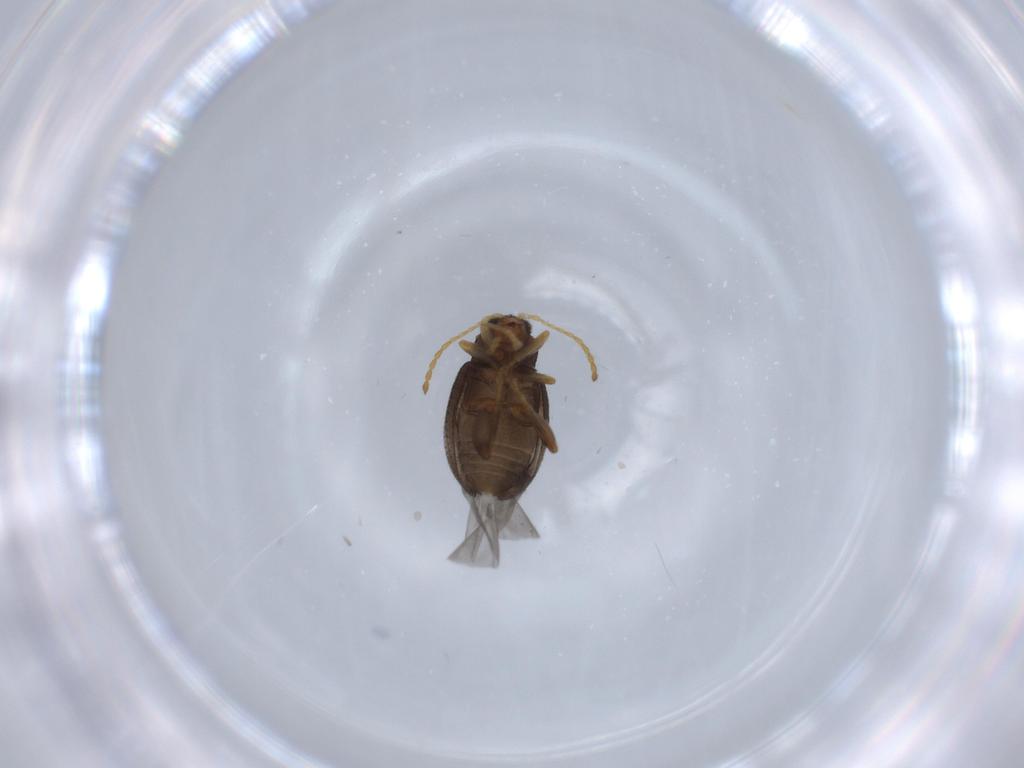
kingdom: Animalia
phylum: Arthropoda
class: Insecta
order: Coleoptera
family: Chrysomelidae
